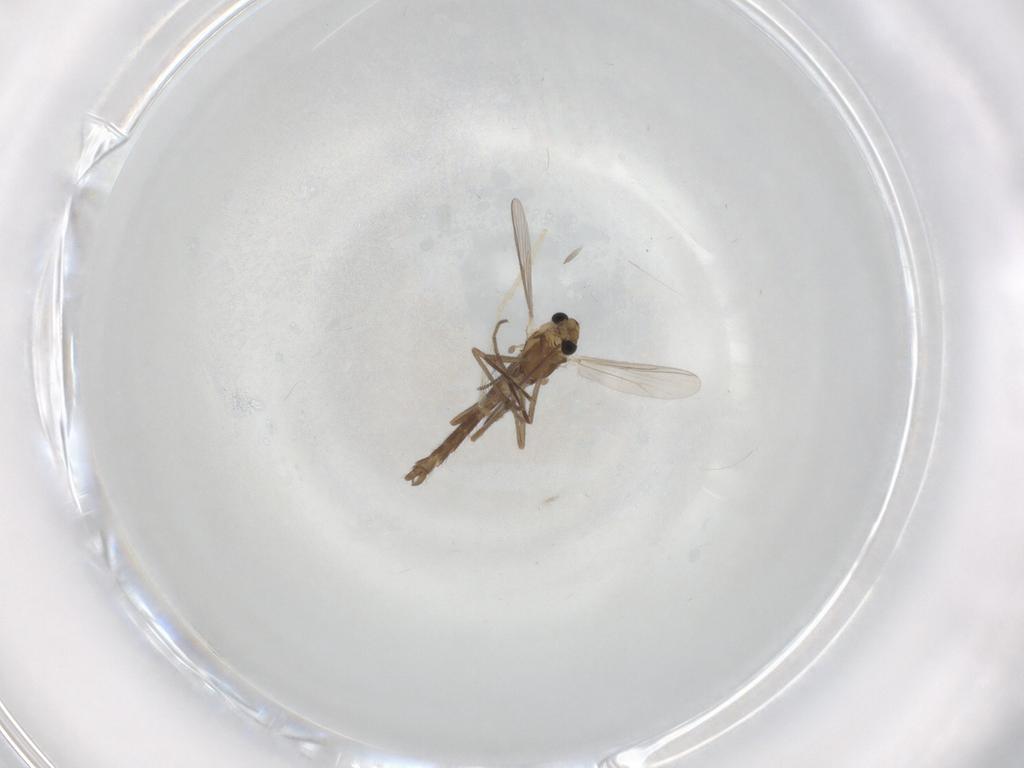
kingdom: Animalia
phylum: Arthropoda
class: Insecta
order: Diptera
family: Chironomidae
